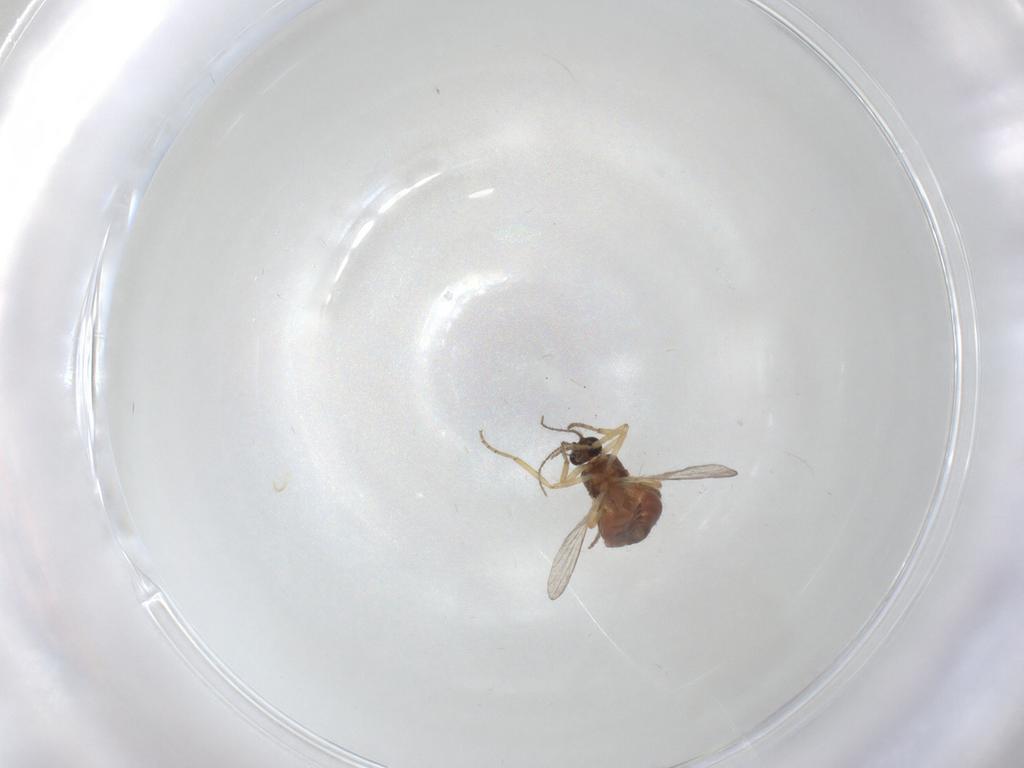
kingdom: Animalia
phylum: Arthropoda
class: Insecta
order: Diptera
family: Ceratopogonidae
